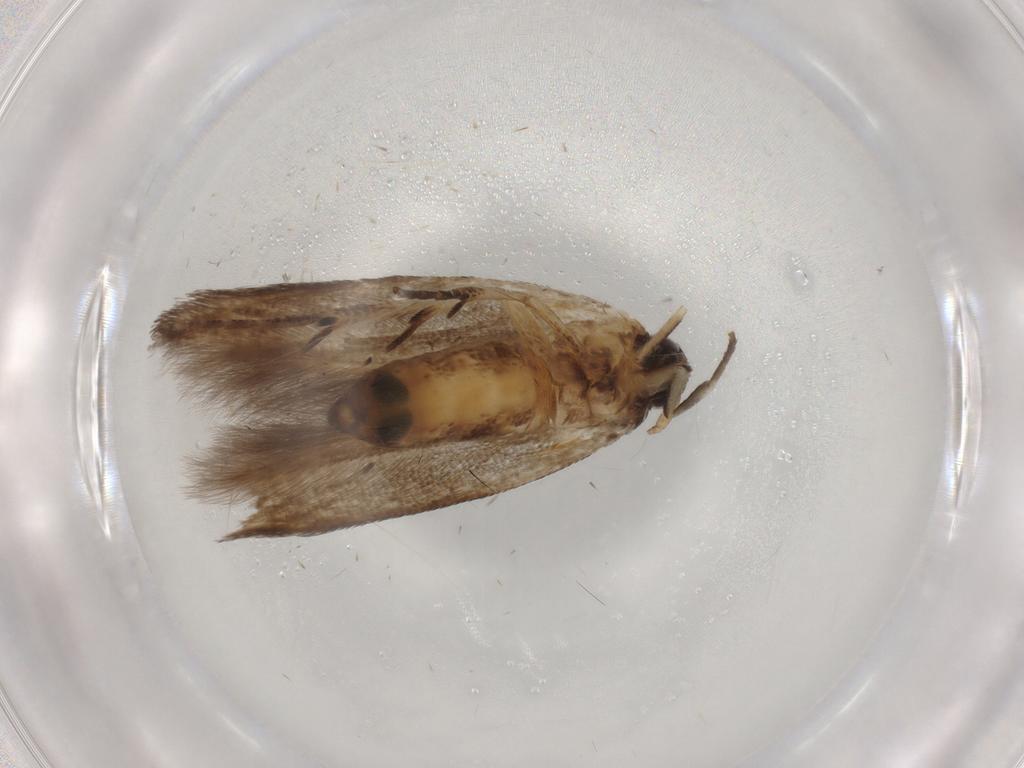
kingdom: Animalia
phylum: Arthropoda
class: Insecta
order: Lepidoptera
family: Cosmopterigidae
